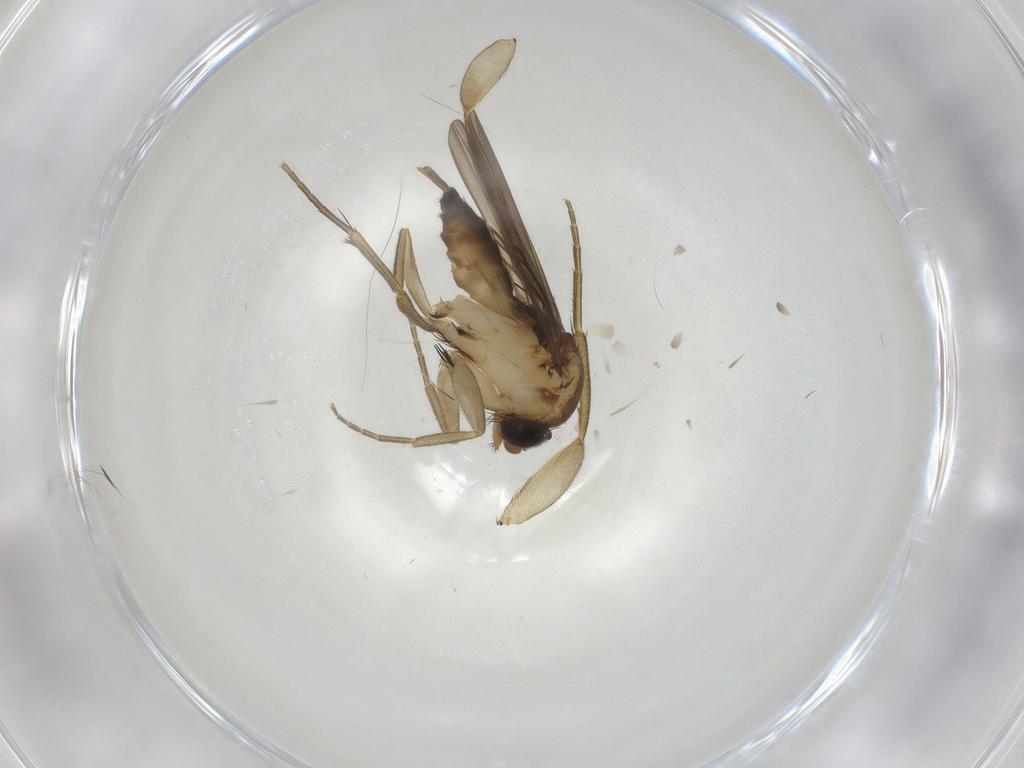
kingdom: Animalia
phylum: Arthropoda
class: Insecta
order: Diptera
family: Phoridae
